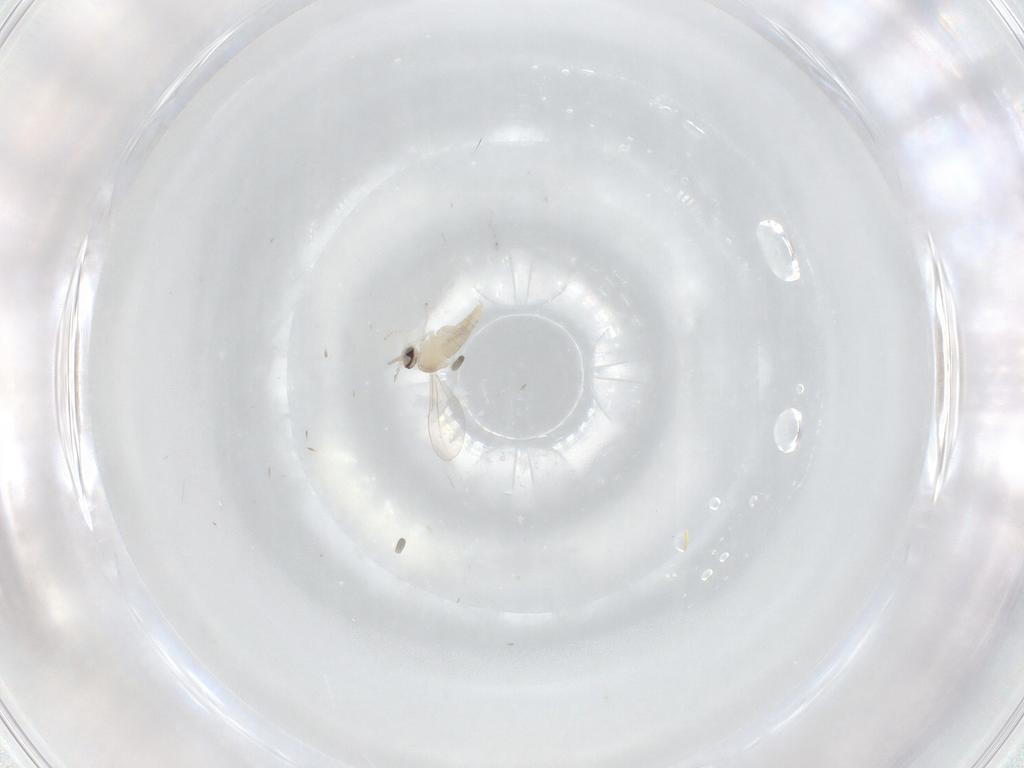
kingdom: Animalia
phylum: Arthropoda
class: Insecta
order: Diptera
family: Cecidomyiidae
